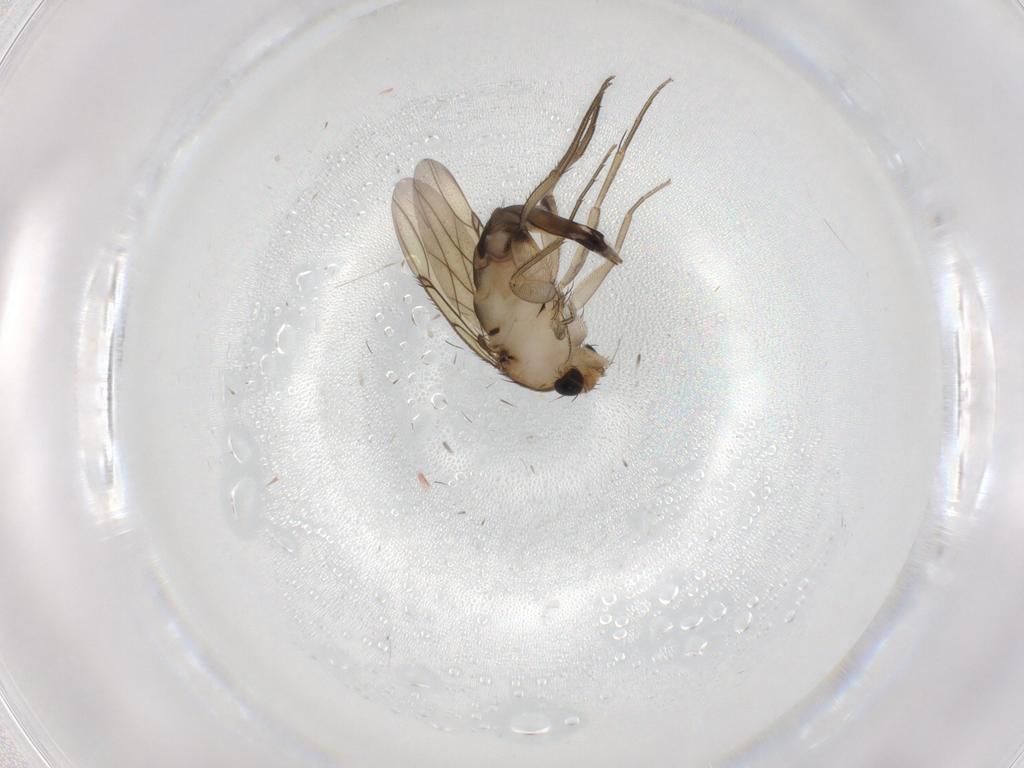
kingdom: Animalia
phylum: Arthropoda
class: Insecta
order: Diptera
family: Phoridae
